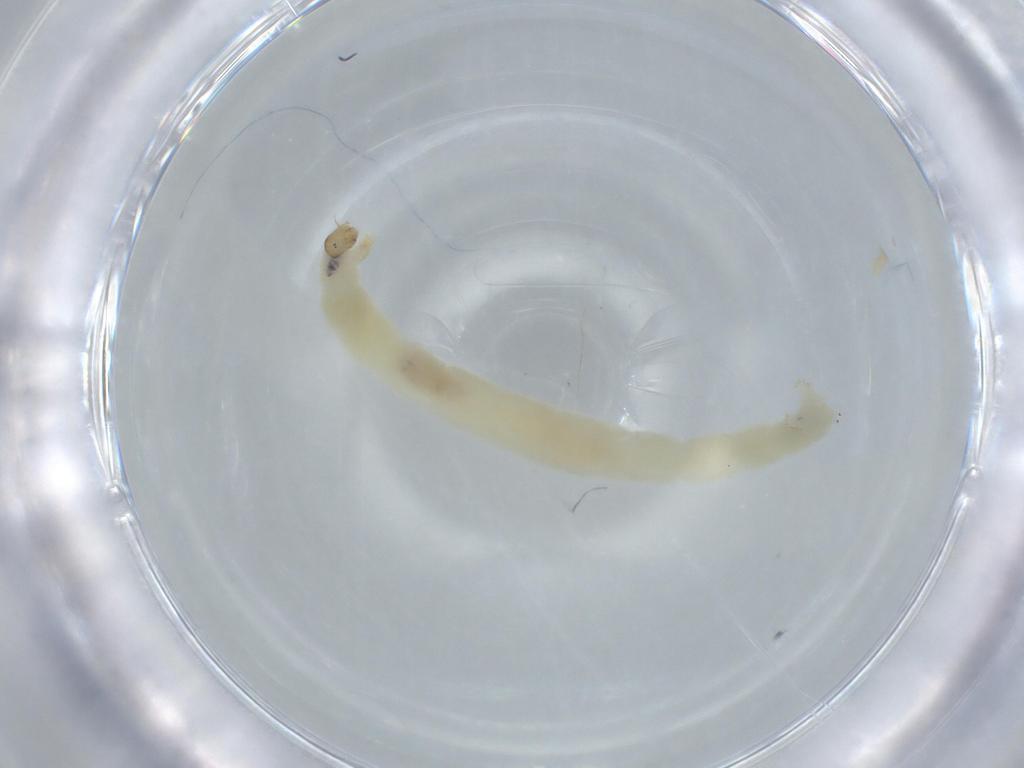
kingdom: Animalia
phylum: Arthropoda
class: Insecta
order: Diptera
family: Chironomidae
